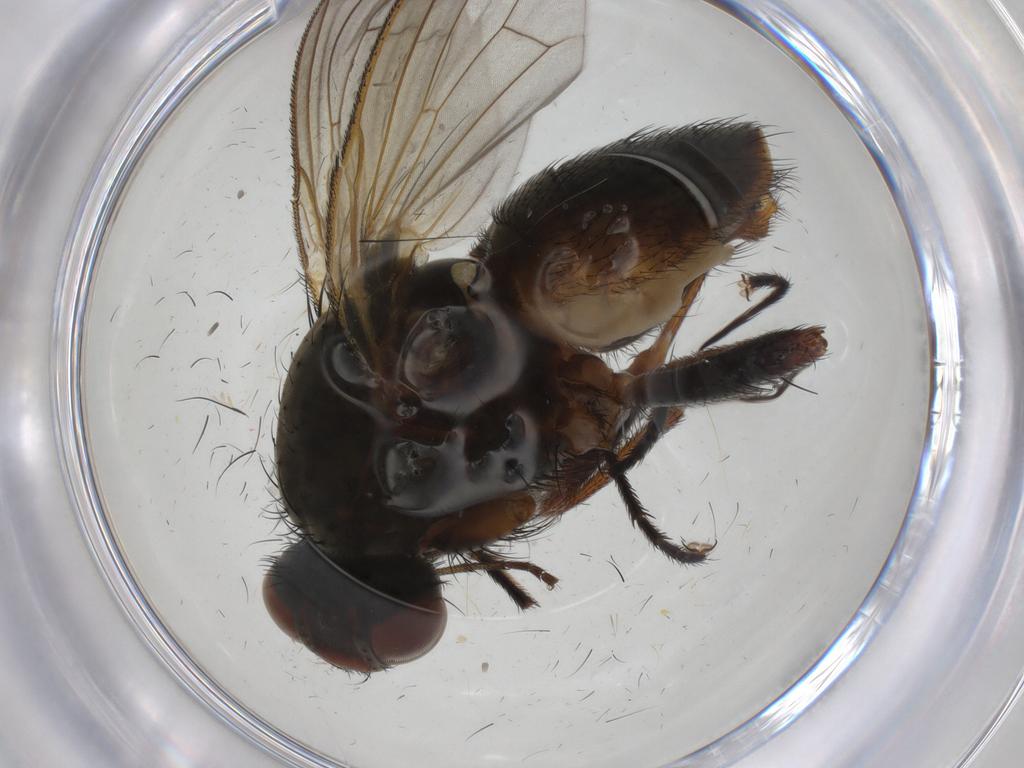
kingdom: Animalia
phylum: Arthropoda
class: Insecta
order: Diptera
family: Anthomyiidae
